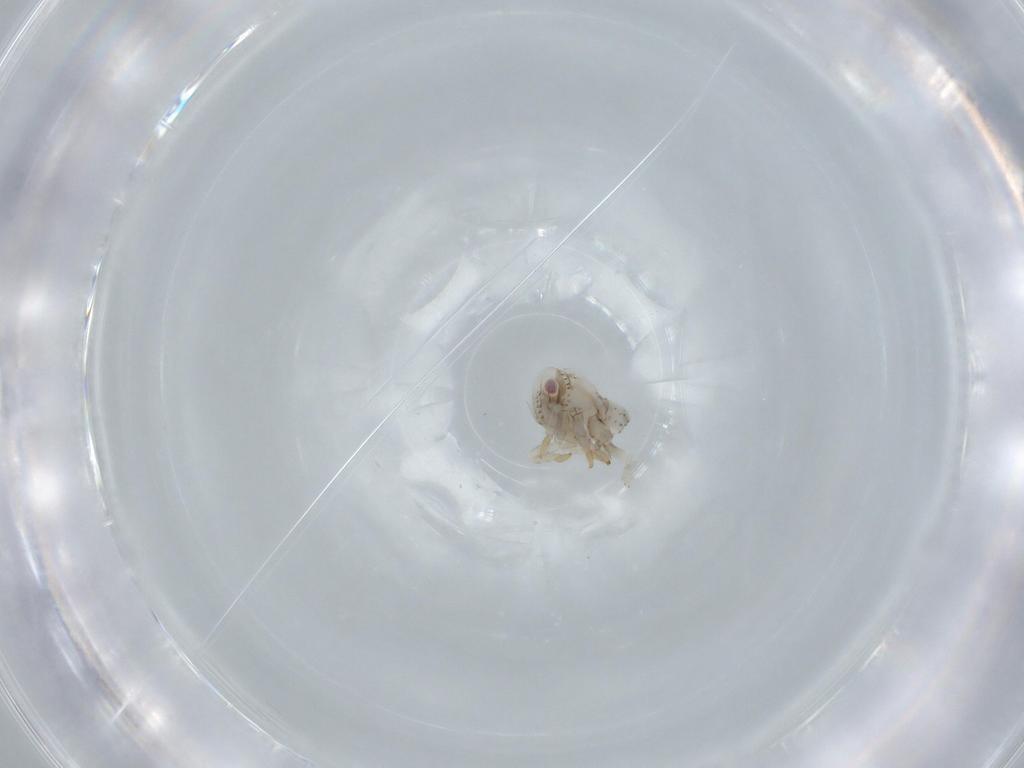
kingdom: Animalia
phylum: Arthropoda
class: Insecta
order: Hemiptera
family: Acanaloniidae
